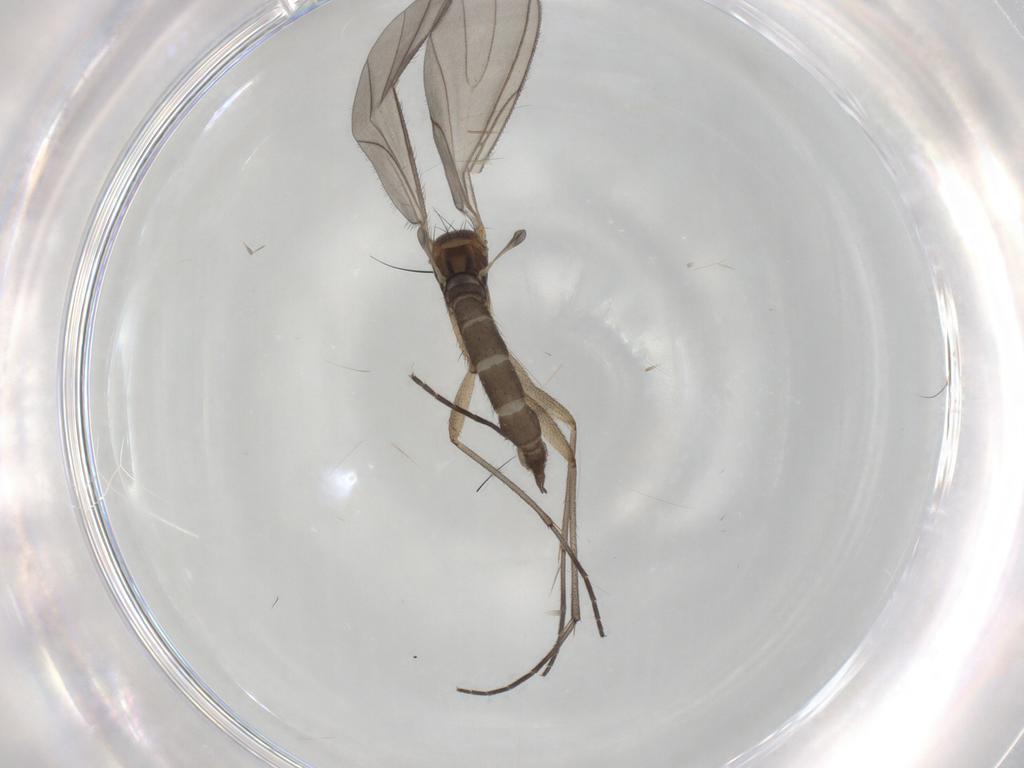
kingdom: Animalia
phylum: Arthropoda
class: Insecta
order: Diptera
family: Sciaridae
